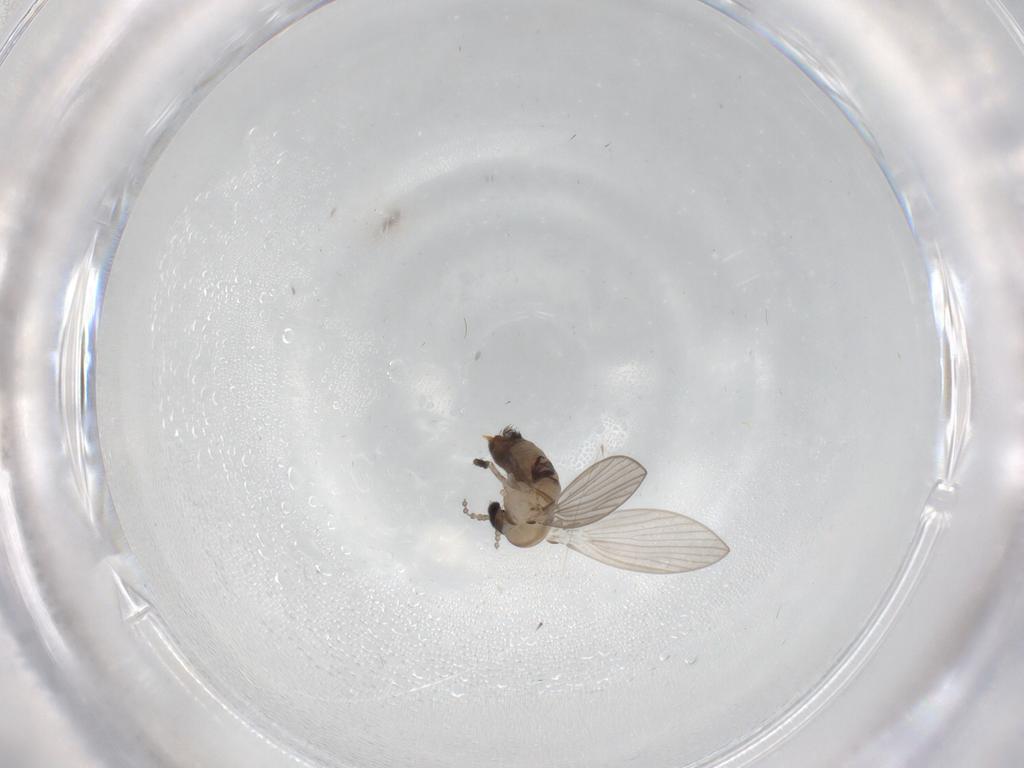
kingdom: Animalia
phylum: Arthropoda
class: Insecta
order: Diptera
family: Psychodidae
